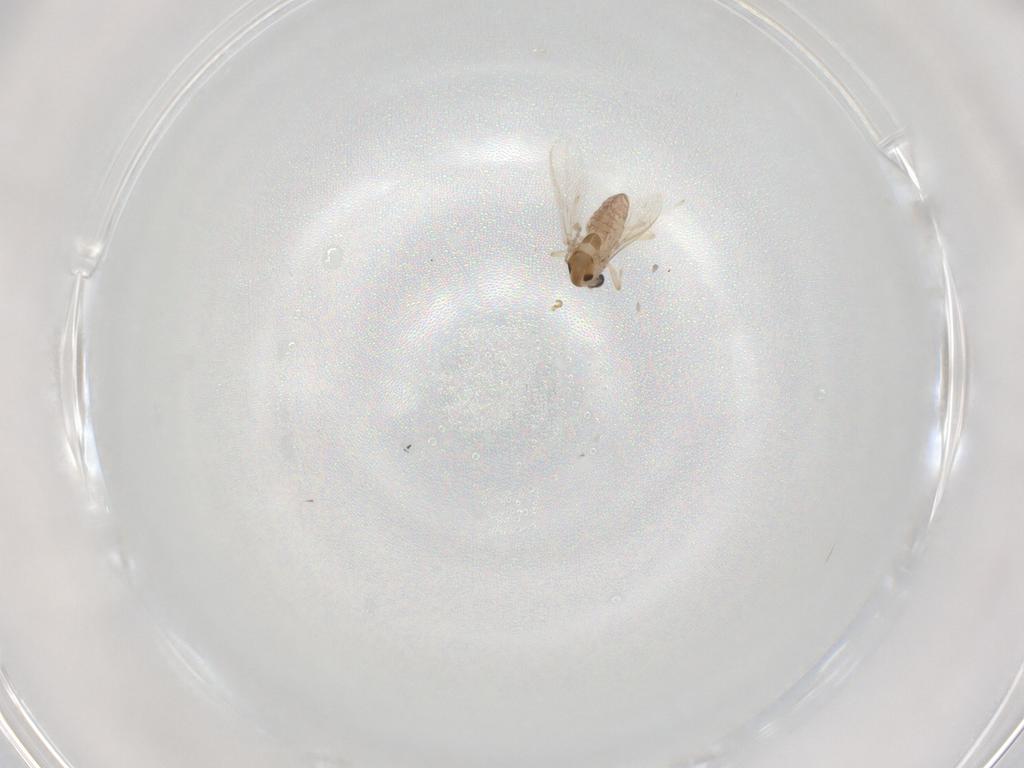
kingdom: Animalia
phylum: Arthropoda
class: Insecta
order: Diptera
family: Chironomidae
